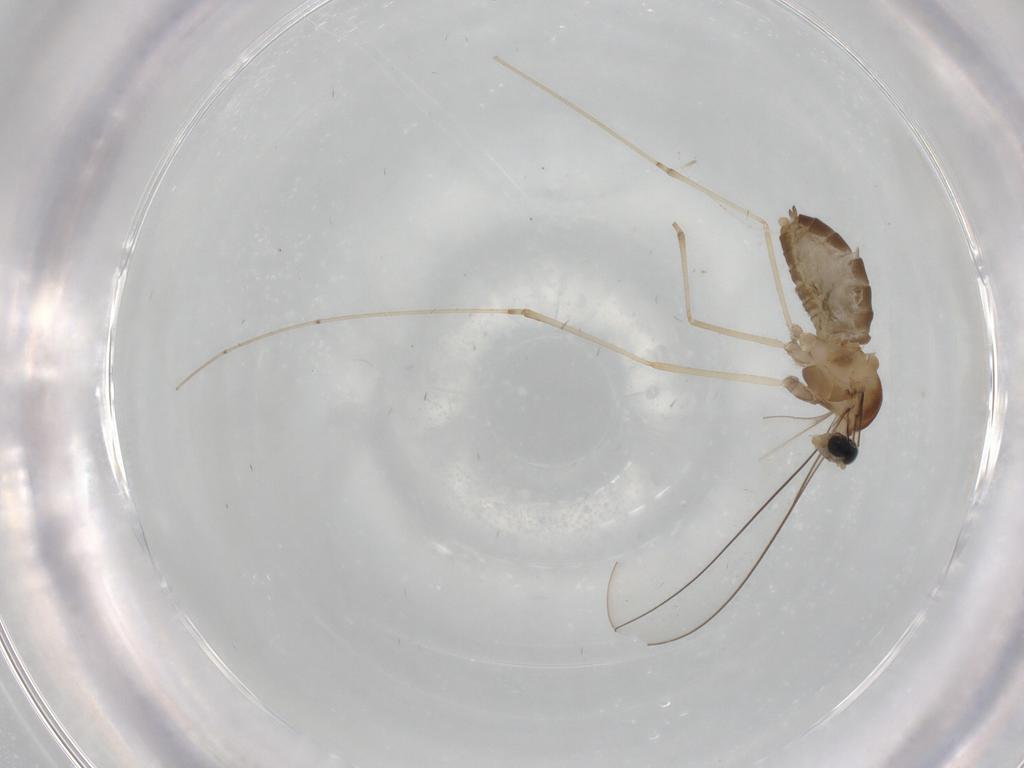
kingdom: Animalia
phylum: Arthropoda
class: Insecta
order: Diptera
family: Cecidomyiidae
